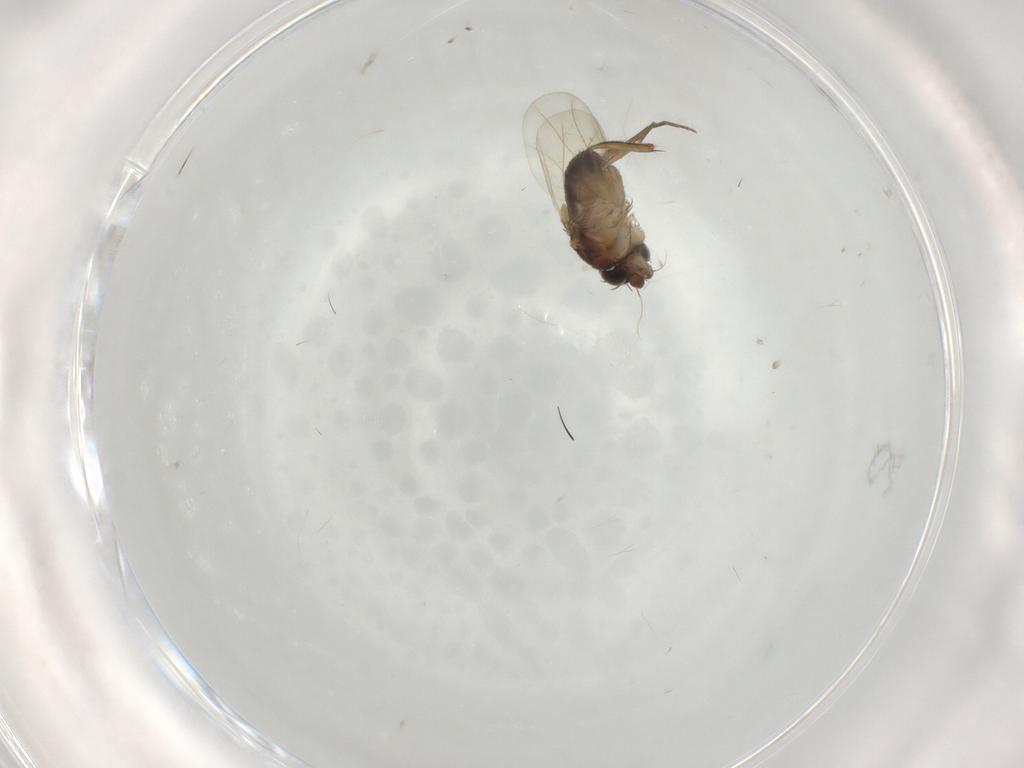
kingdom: Animalia
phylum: Arthropoda
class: Insecta
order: Diptera
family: Phoridae
